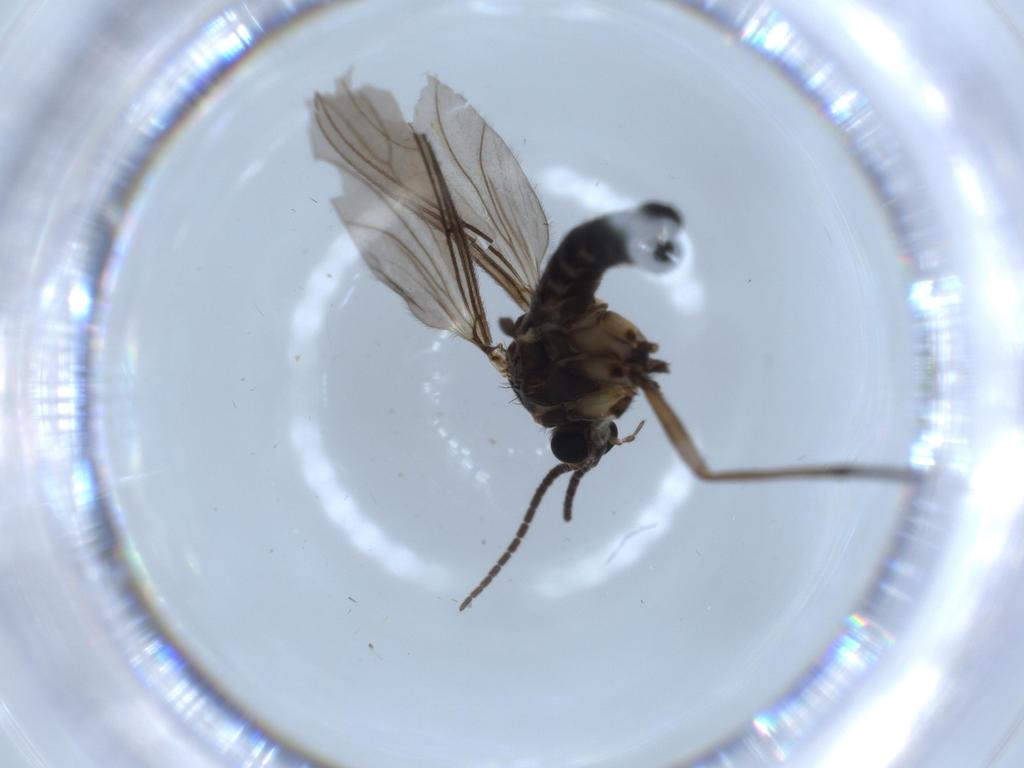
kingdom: Animalia
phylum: Arthropoda
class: Insecta
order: Diptera
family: Sciaridae
